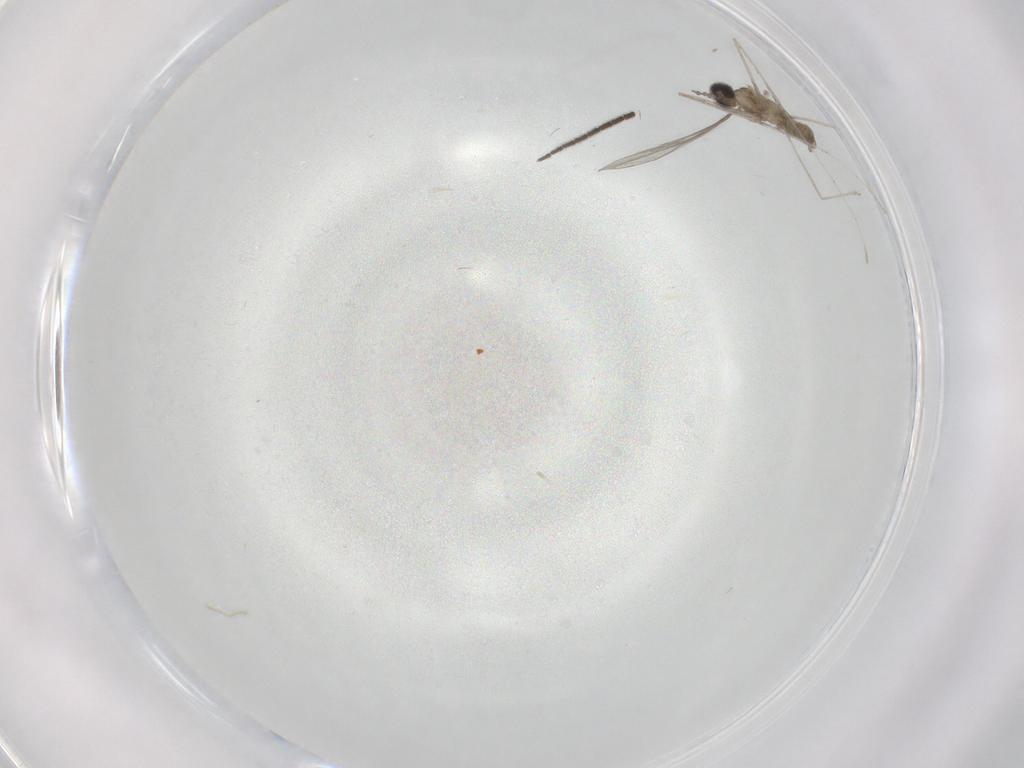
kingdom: Animalia
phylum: Arthropoda
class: Insecta
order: Diptera
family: Cecidomyiidae
